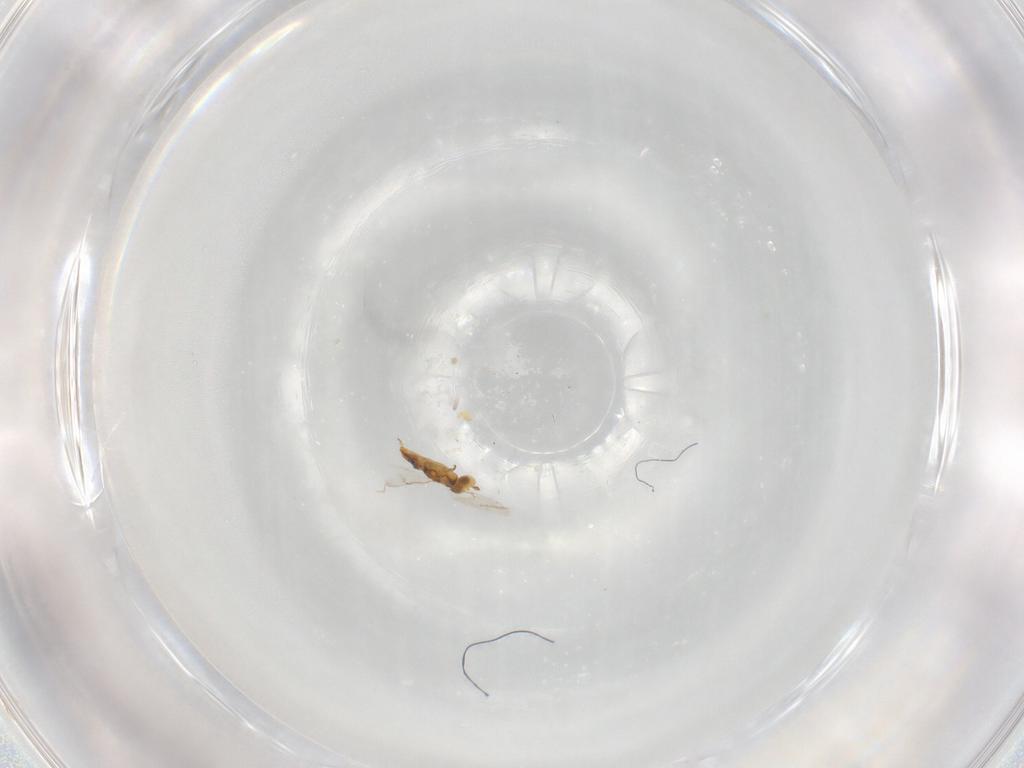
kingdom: Animalia
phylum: Arthropoda
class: Insecta
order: Hymenoptera
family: Encyrtidae
